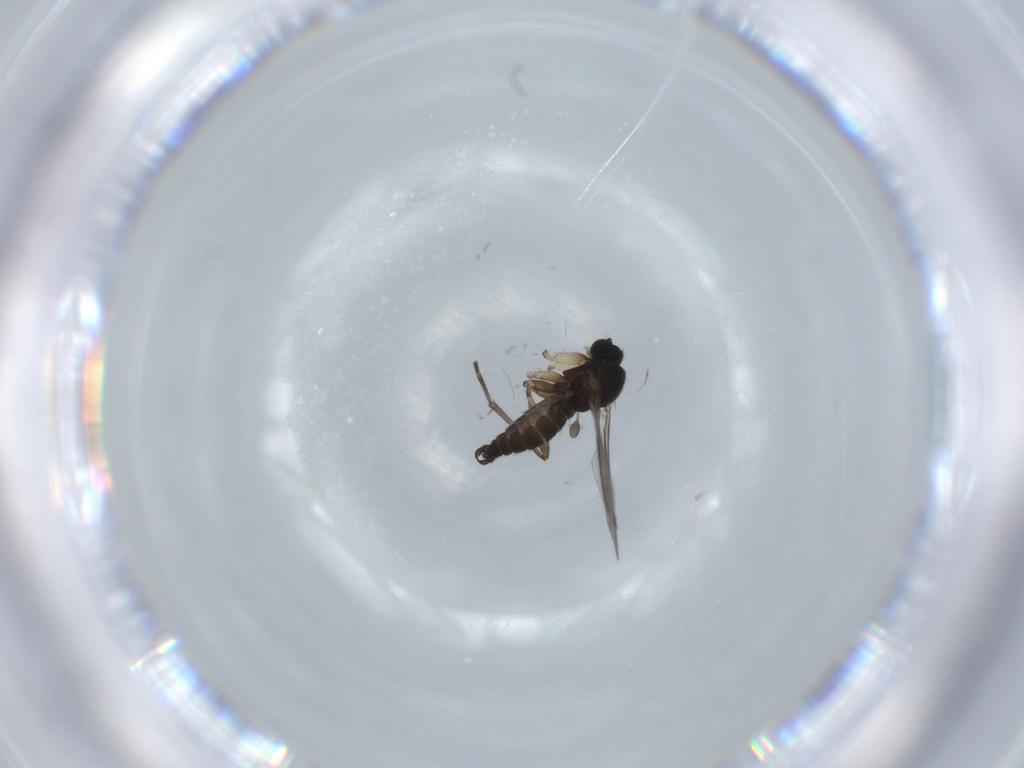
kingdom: Animalia
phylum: Arthropoda
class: Insecta
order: Diptera
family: Sciaridae
